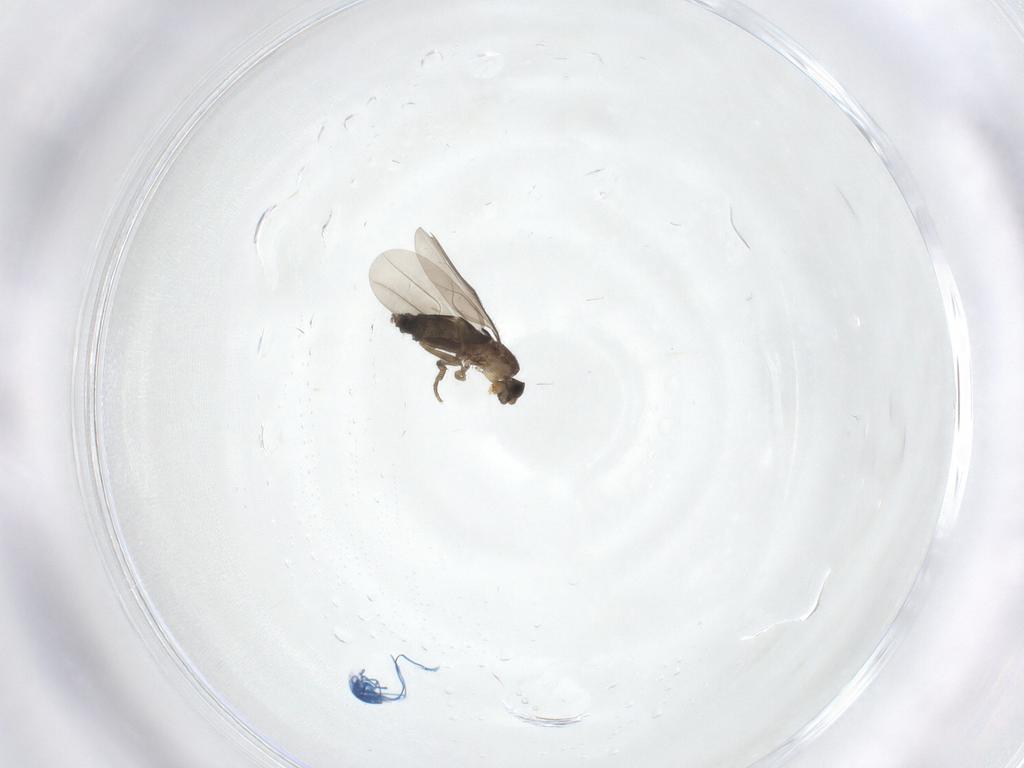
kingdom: Animalia
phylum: Arthropoda
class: Insecta
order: Diptera
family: Phoridae
